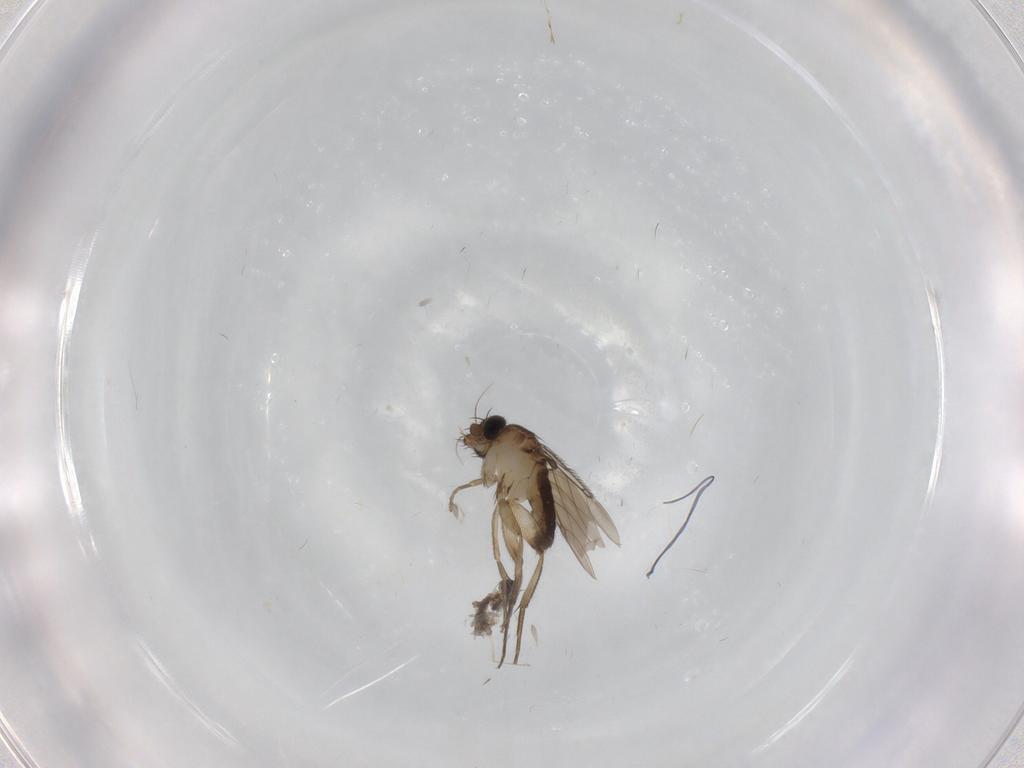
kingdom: Animalia
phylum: Arthropoda
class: Insecta
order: Diptera
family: Phoridae
